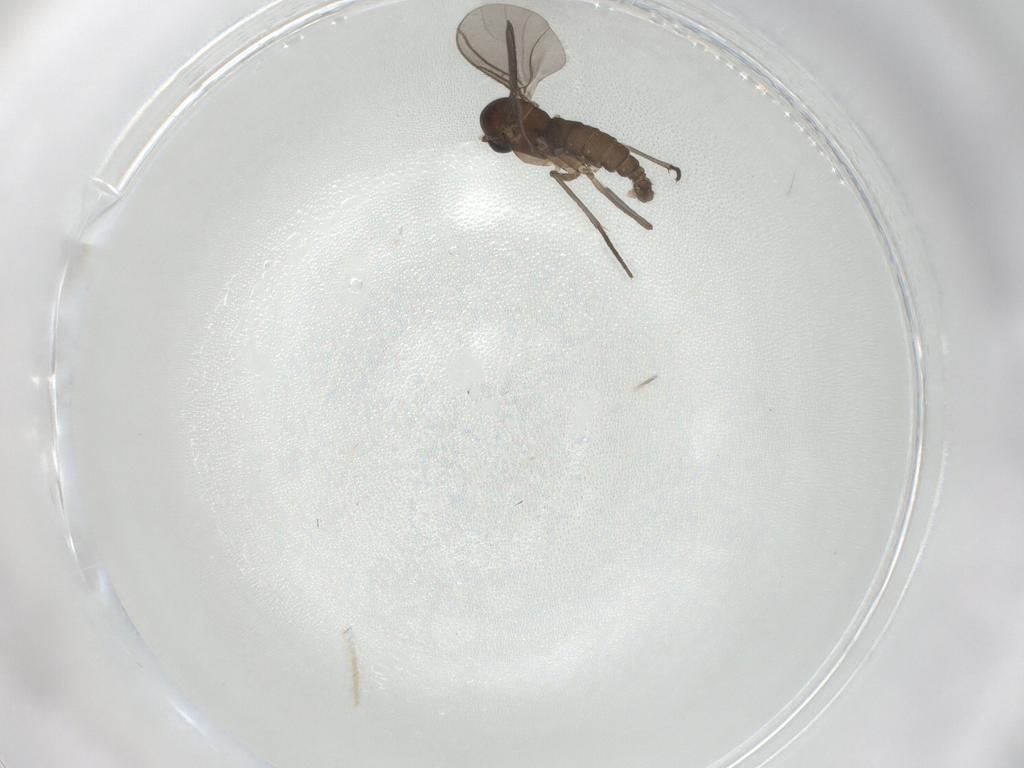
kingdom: Animalia
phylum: Arthropoda
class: Insecta
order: Diptera
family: Sciaridae
